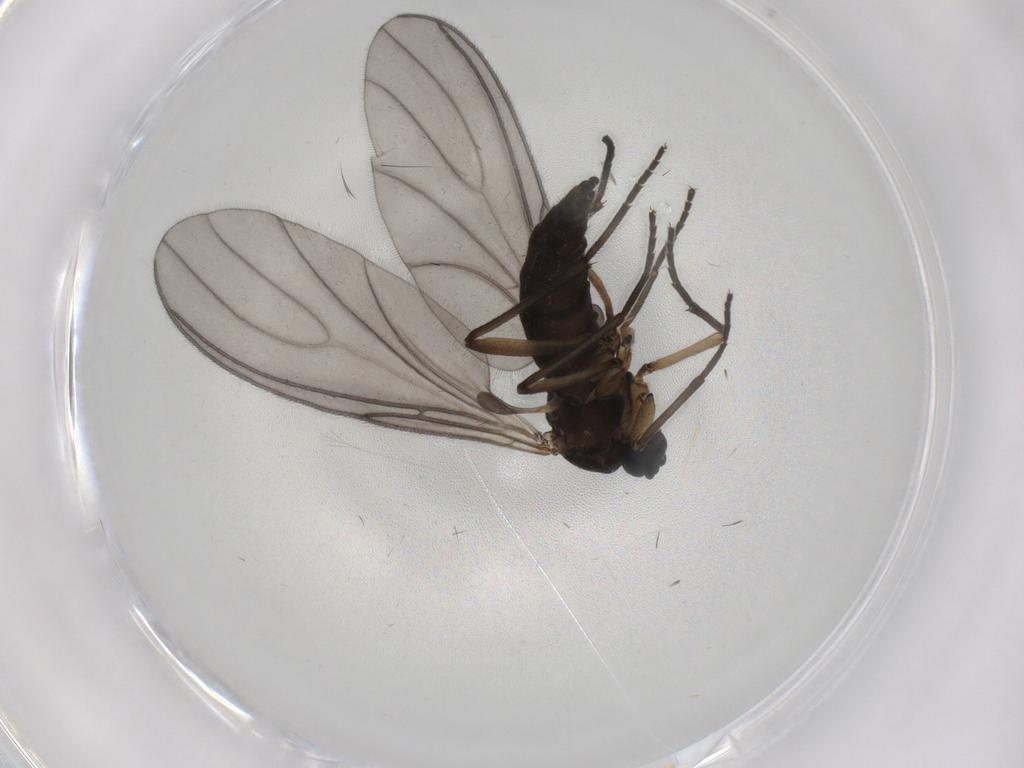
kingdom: Animalia
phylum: Arthropoda
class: Insecta
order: Diptera
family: Sciaridae
